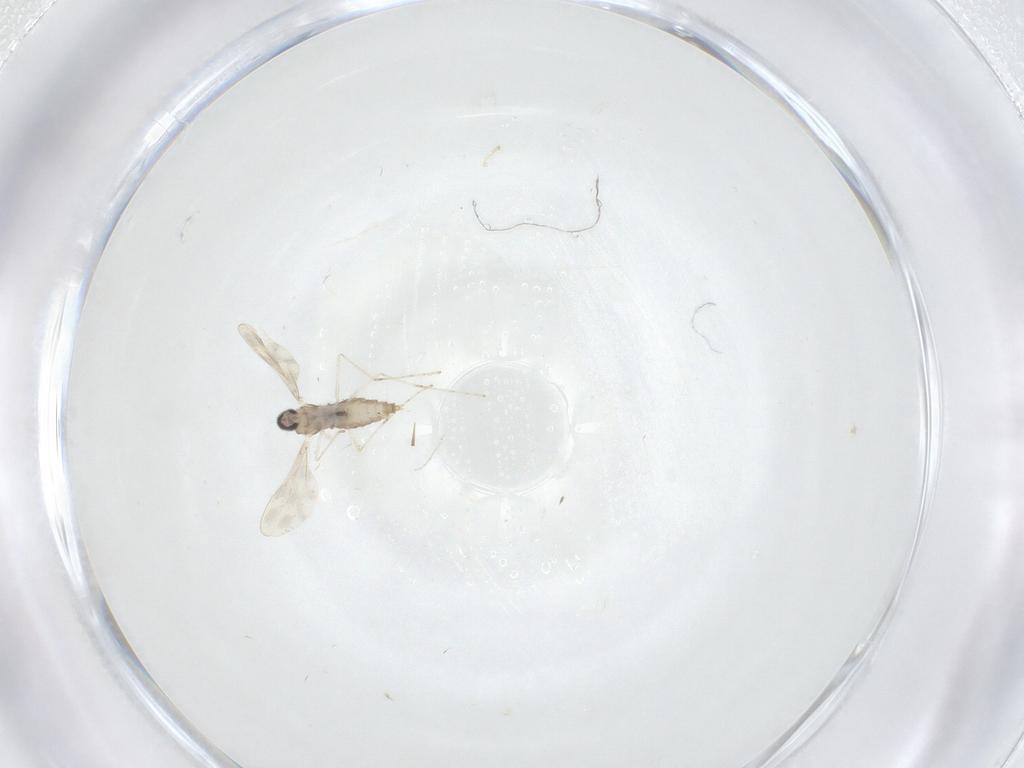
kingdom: Animalia
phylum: Arthropoda
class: Insecta
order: Diptera
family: Cecidomyiidae
